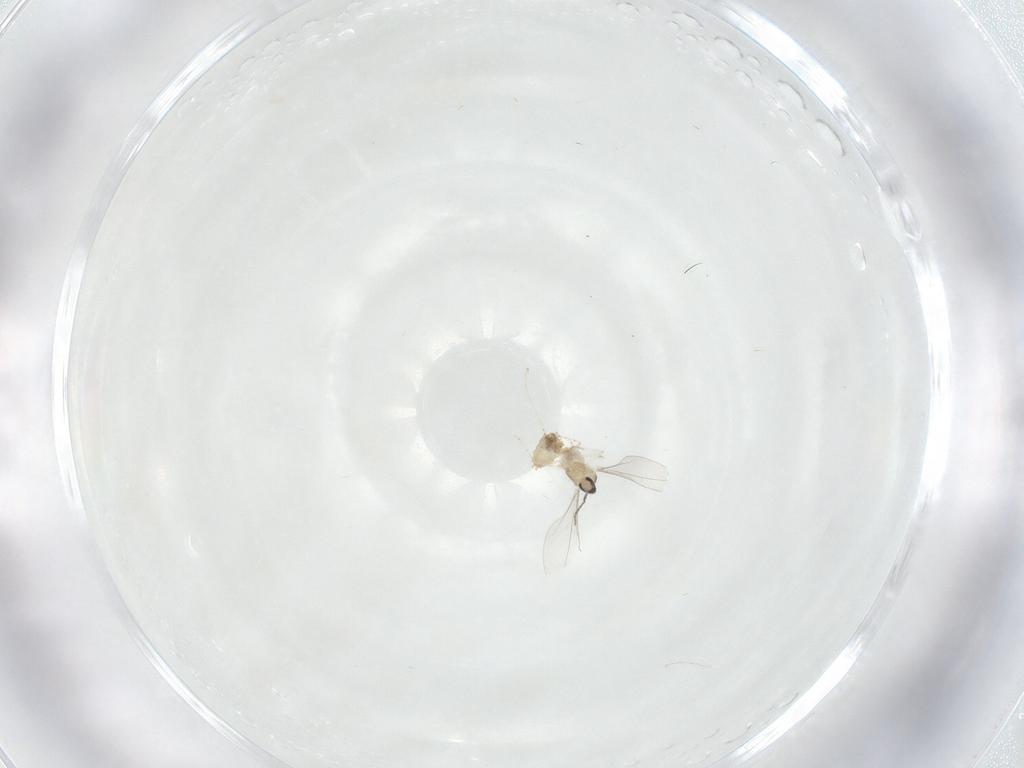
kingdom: Animalia
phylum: Arthropoda
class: Insecta
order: Diptera
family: Cecidomyiidae
